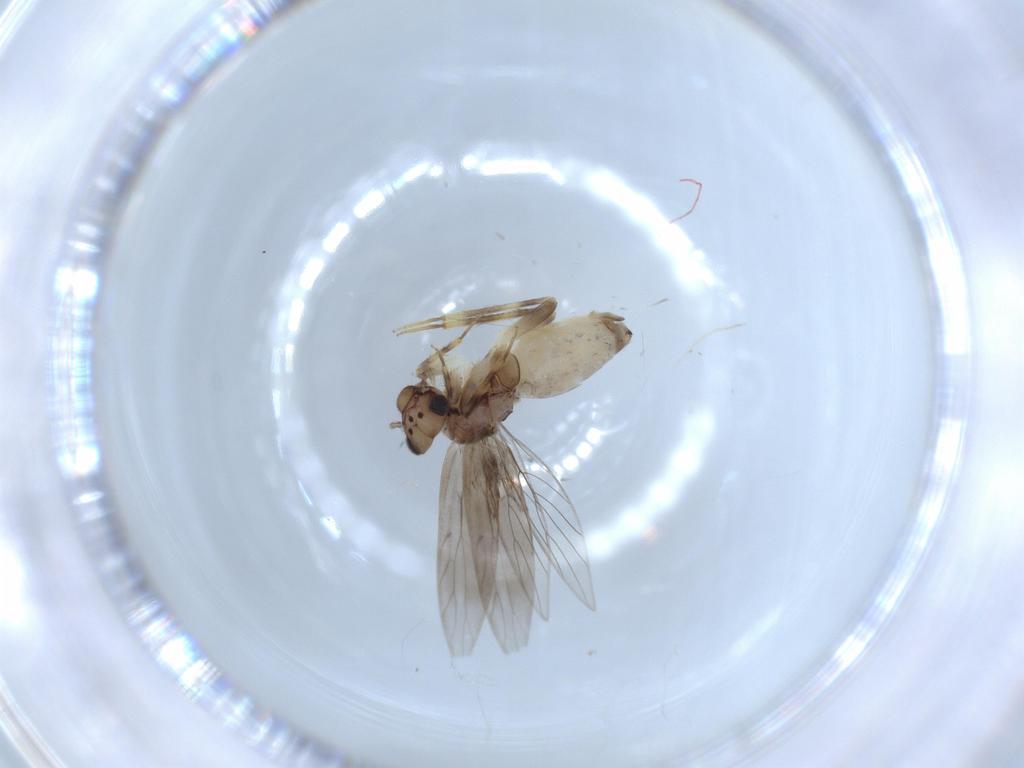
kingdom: Animalia
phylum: Arthropoda
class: Insecta
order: Psocodea
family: Lepidopsocidae
